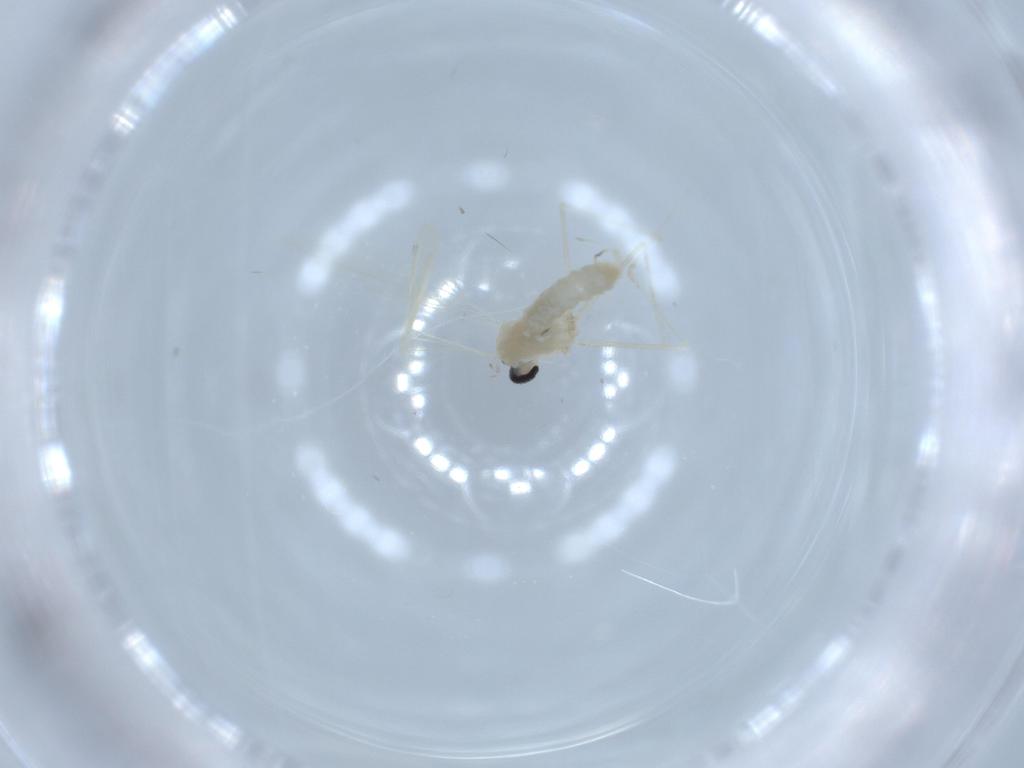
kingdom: Animalia
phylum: Arthropoda
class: Insecta
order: Diptera
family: Cecidomyiidae
